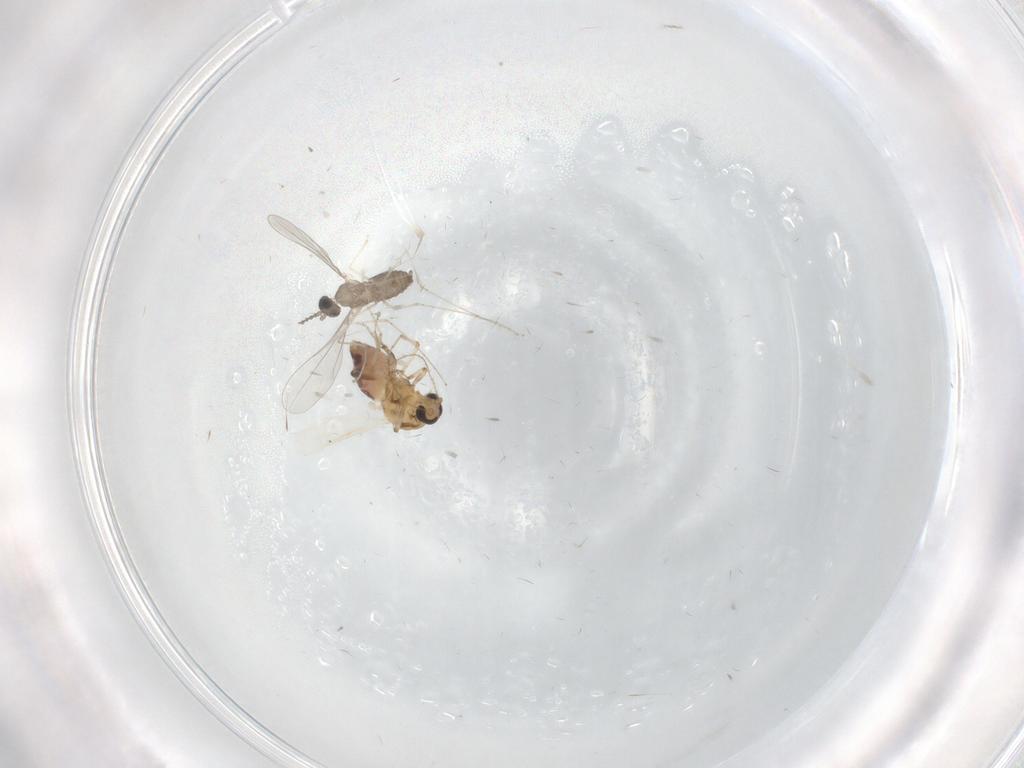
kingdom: Animalia
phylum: Arthropoda
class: Insecta
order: Diptera
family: Cecidomyiidae
